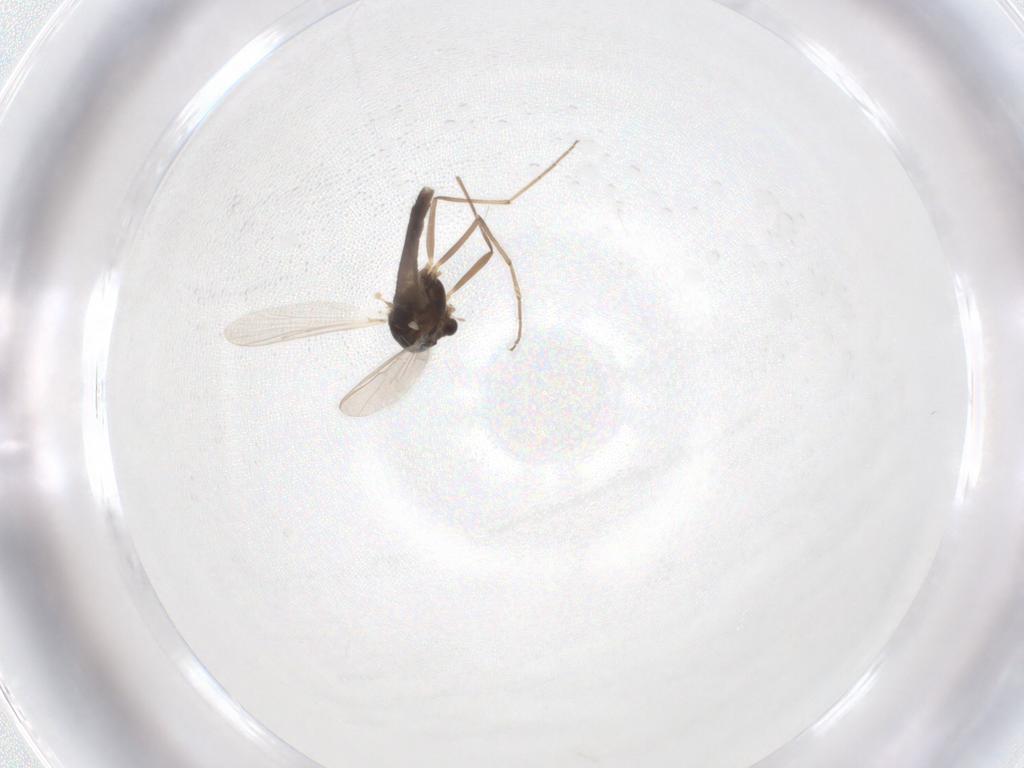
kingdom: Animalia
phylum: Arthropoda
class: Insecta
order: Diptera
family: Chironomidae
